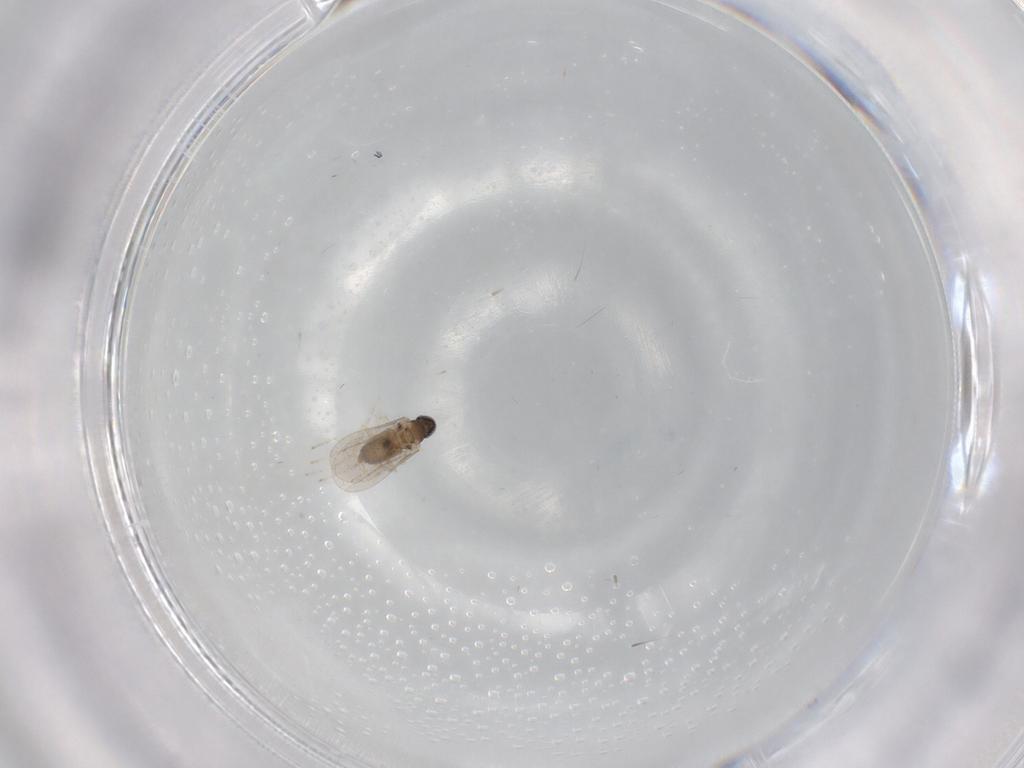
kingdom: Animalia
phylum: Arthropoda
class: Insecta
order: Diptera
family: Cecidomyiidae
